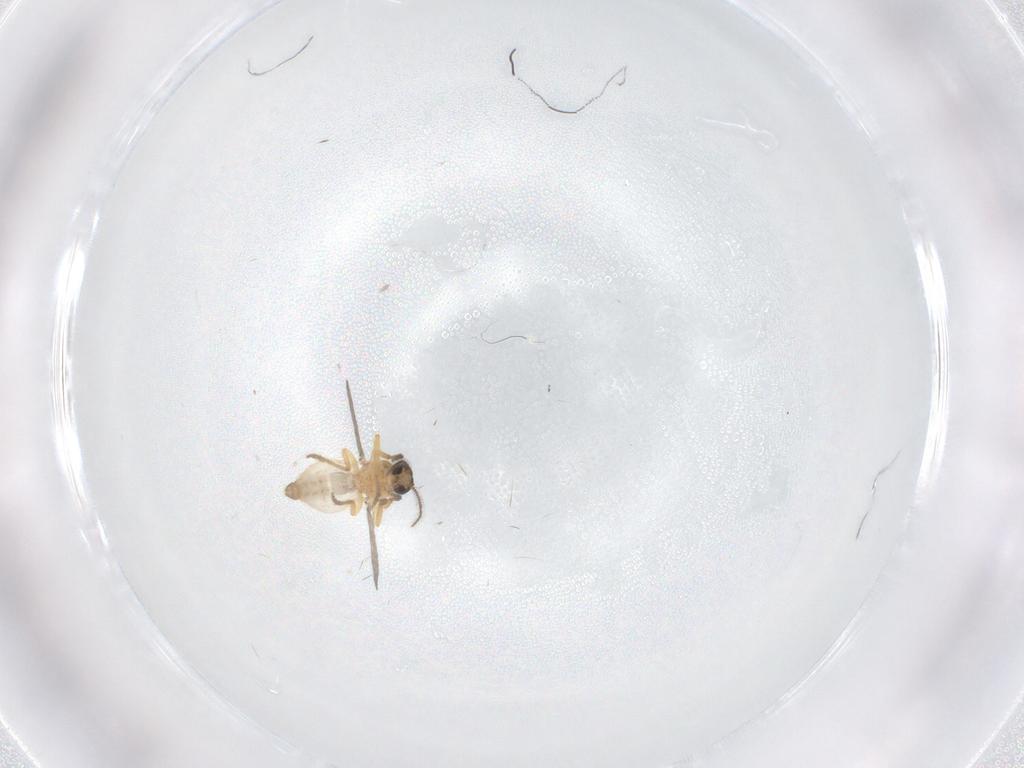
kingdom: Animalia
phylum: Arthropoda
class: Insecta
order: Diptera
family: Ceratopogonidae
